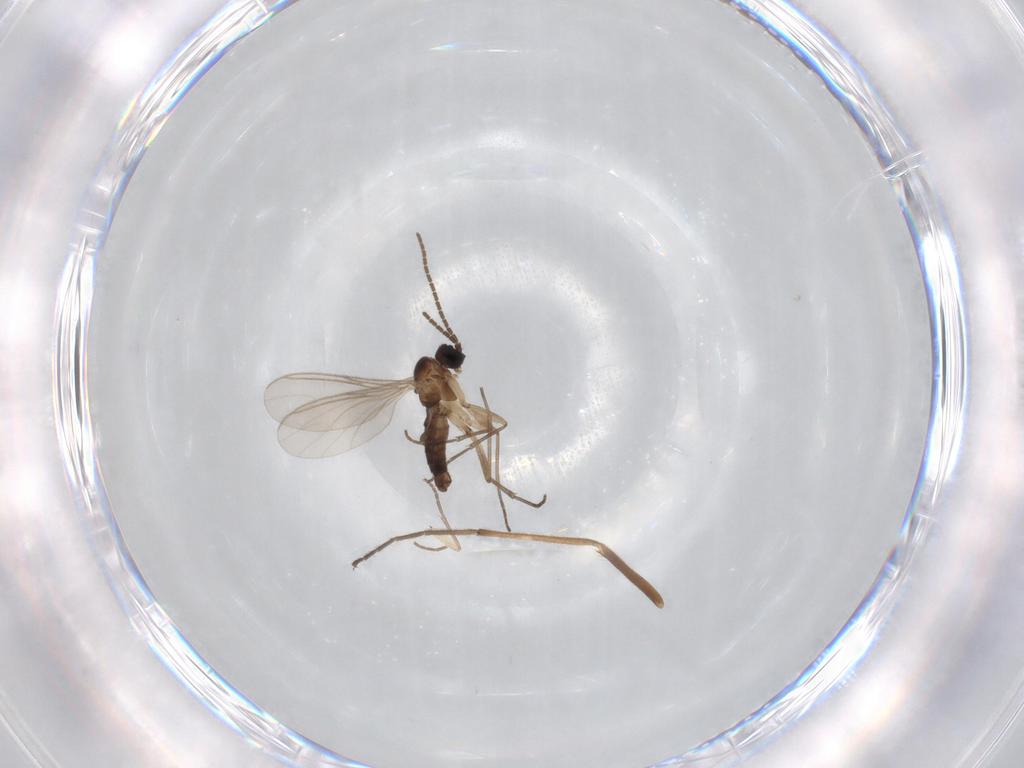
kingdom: Animalia
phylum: Arthropoda
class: Insecta
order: Diptera
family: Sciaridae
